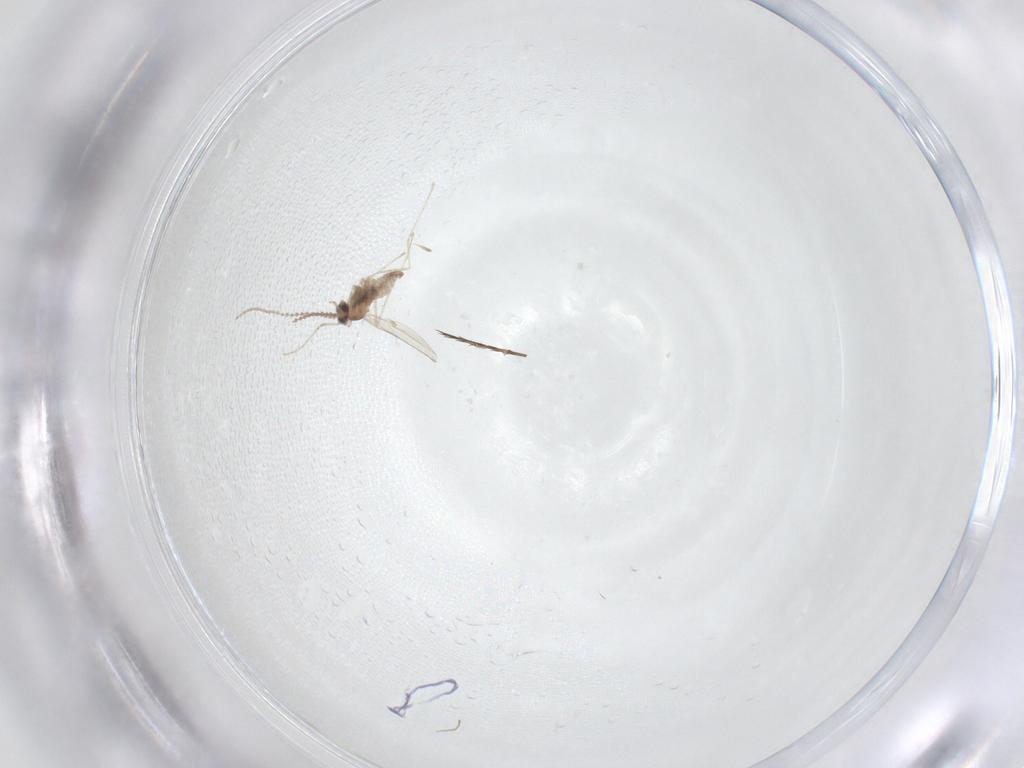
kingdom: Animalia
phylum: Arthropoda
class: Insecta
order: Diptera
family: Cecidomyiidae
